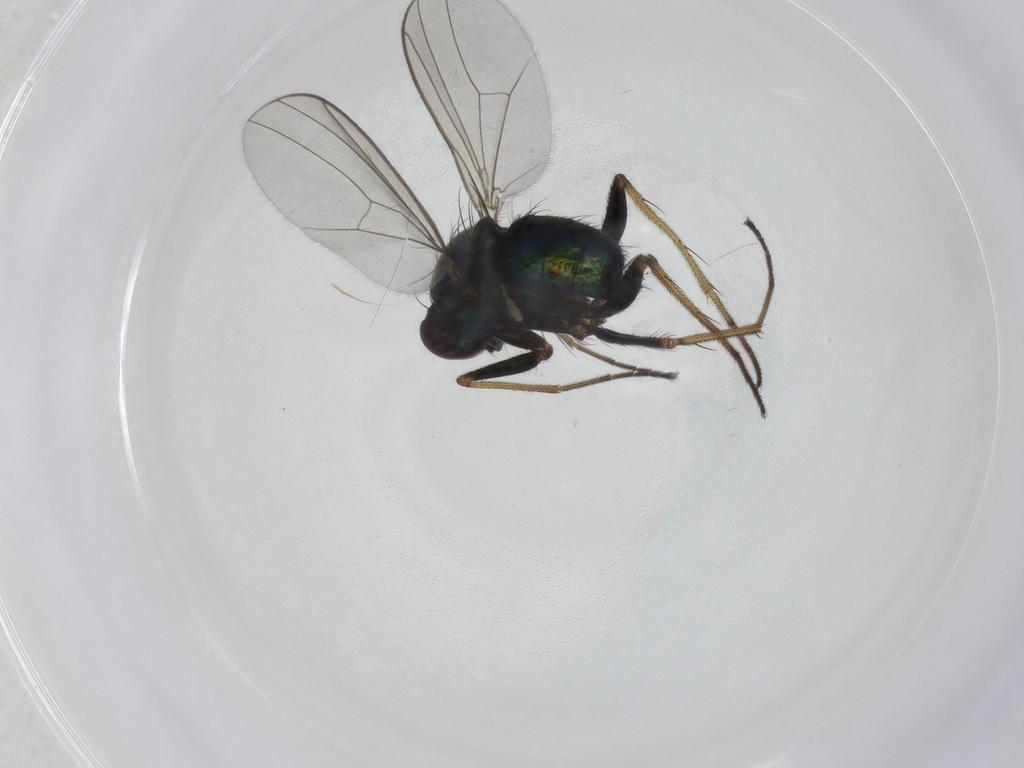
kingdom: Animalia
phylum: Arthropoda
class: Insecta
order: Diptera
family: Dolichopodidae
